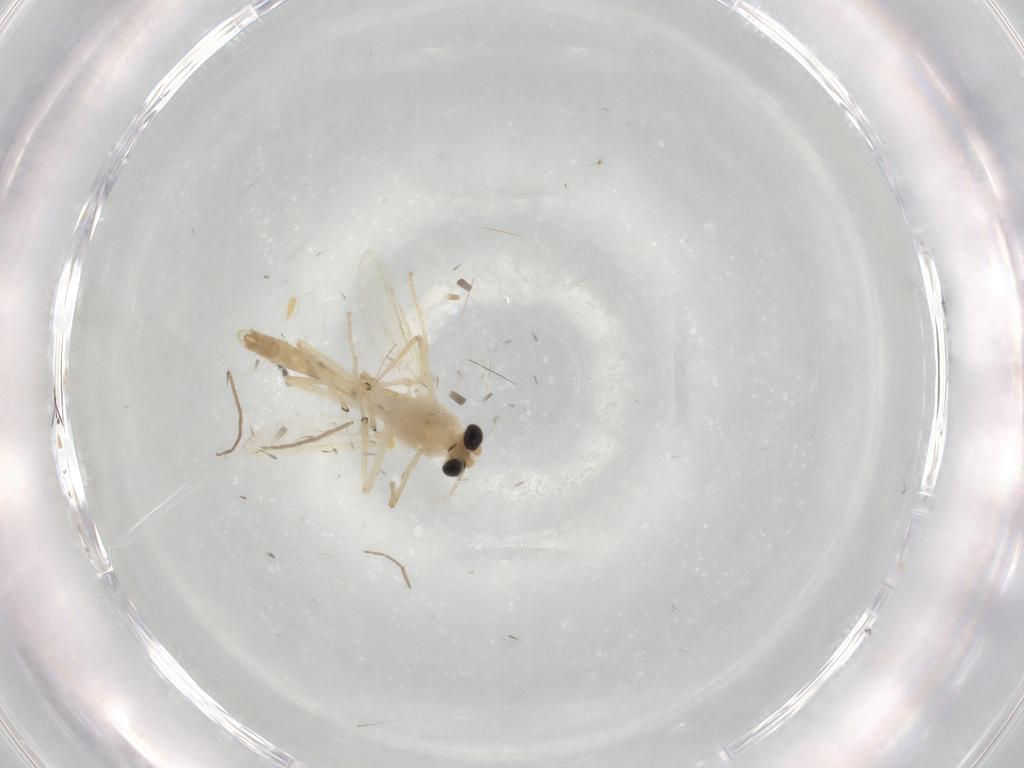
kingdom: Animalia
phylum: Arthropoda
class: Insecta
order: Diptera
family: Chironomidae
